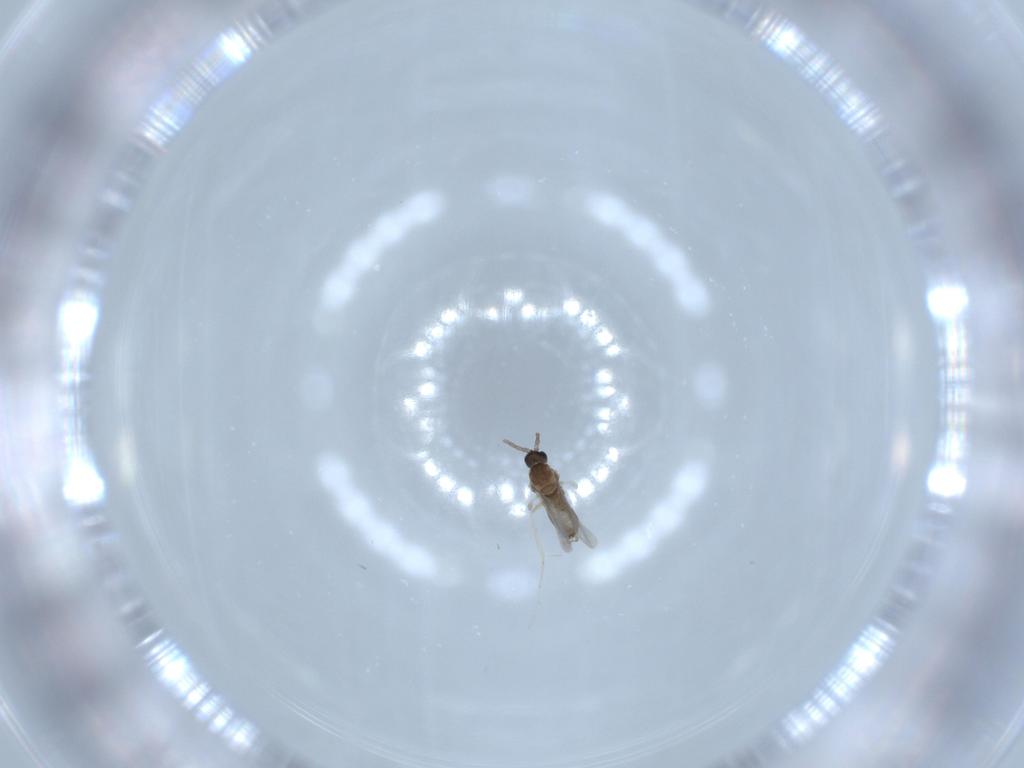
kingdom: Animalia
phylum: Arthropoda
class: Insecta
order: Diptera
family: Cecidomyiidae
